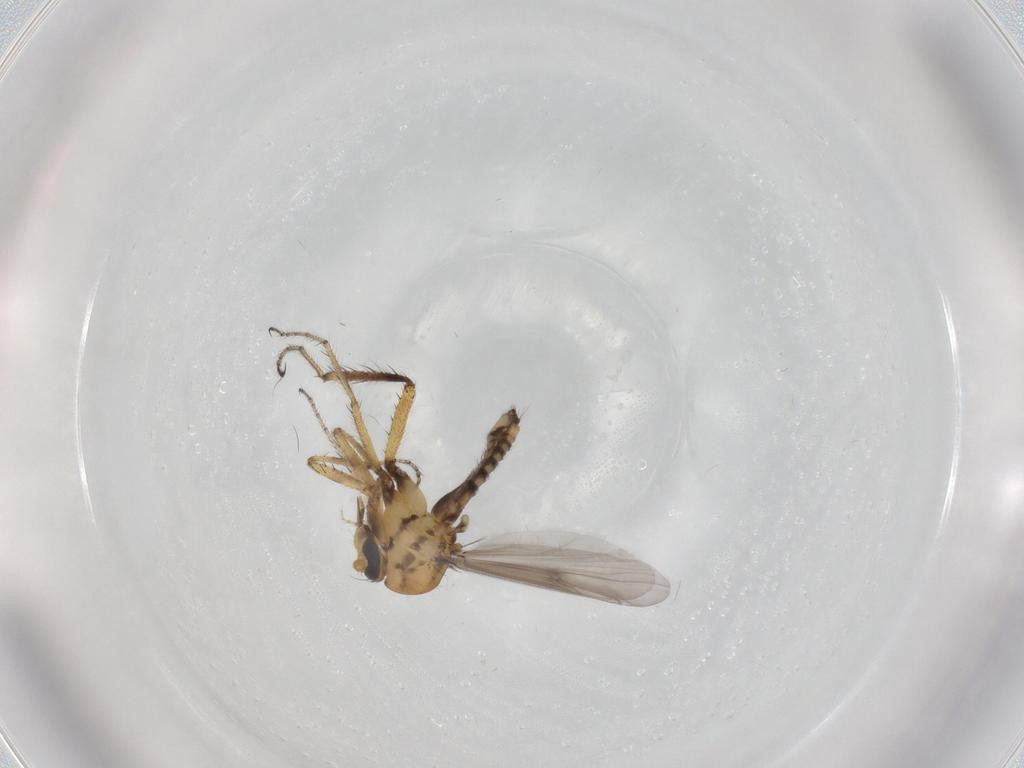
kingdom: Animalia
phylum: Arthropoda
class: Insecta
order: Diptera
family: Ceratopogonidae
